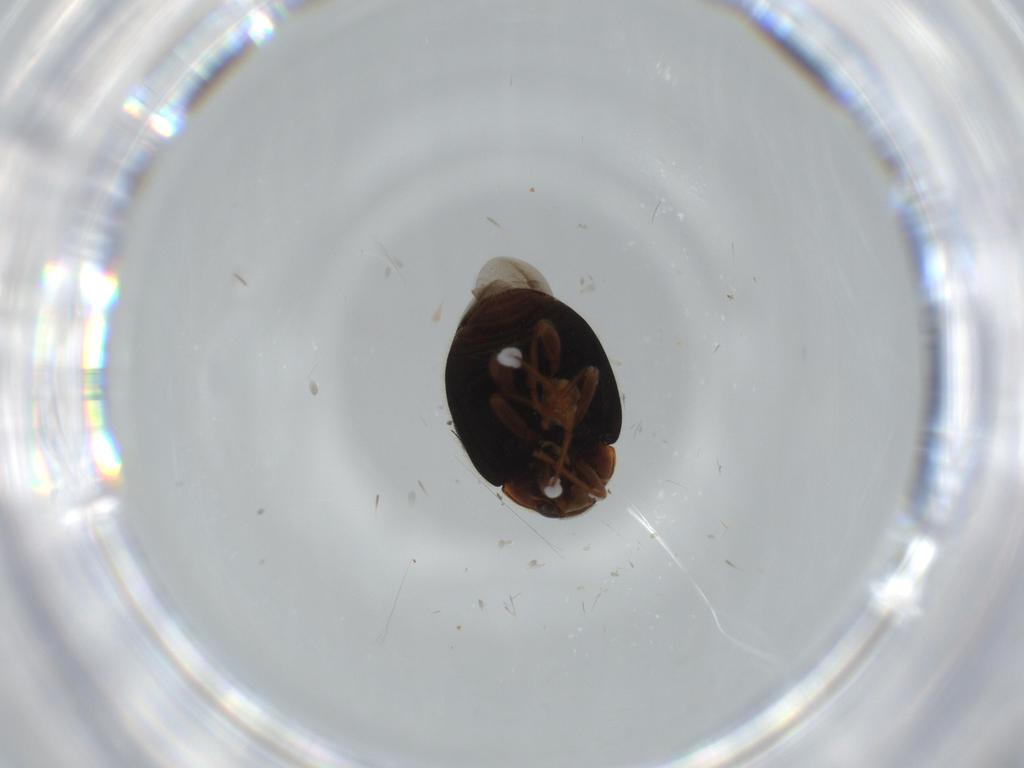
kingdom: Animalia
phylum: Arthropoda
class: Insecta
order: Coleoptera
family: Coccinellidae
